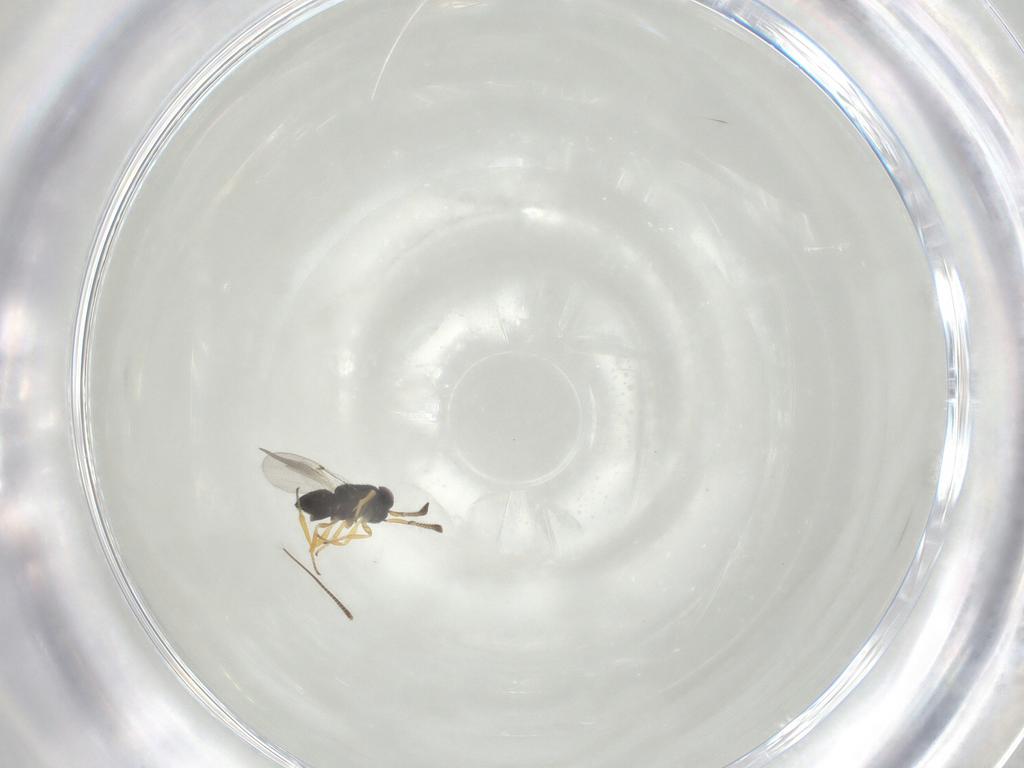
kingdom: Animalia
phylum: Arthropoda
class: Insecta
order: Hymenoptera
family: Encyrtidae
